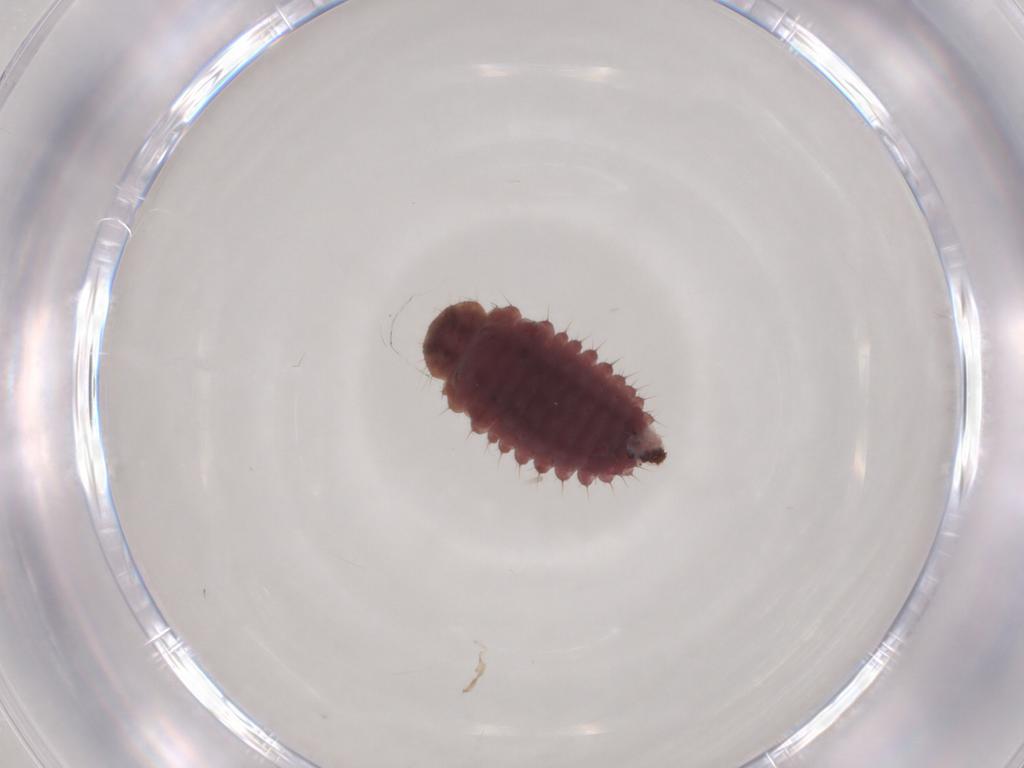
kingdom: Animalia
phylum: Arthropoda
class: Insecta
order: Coleoptera
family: Coccinellidae
